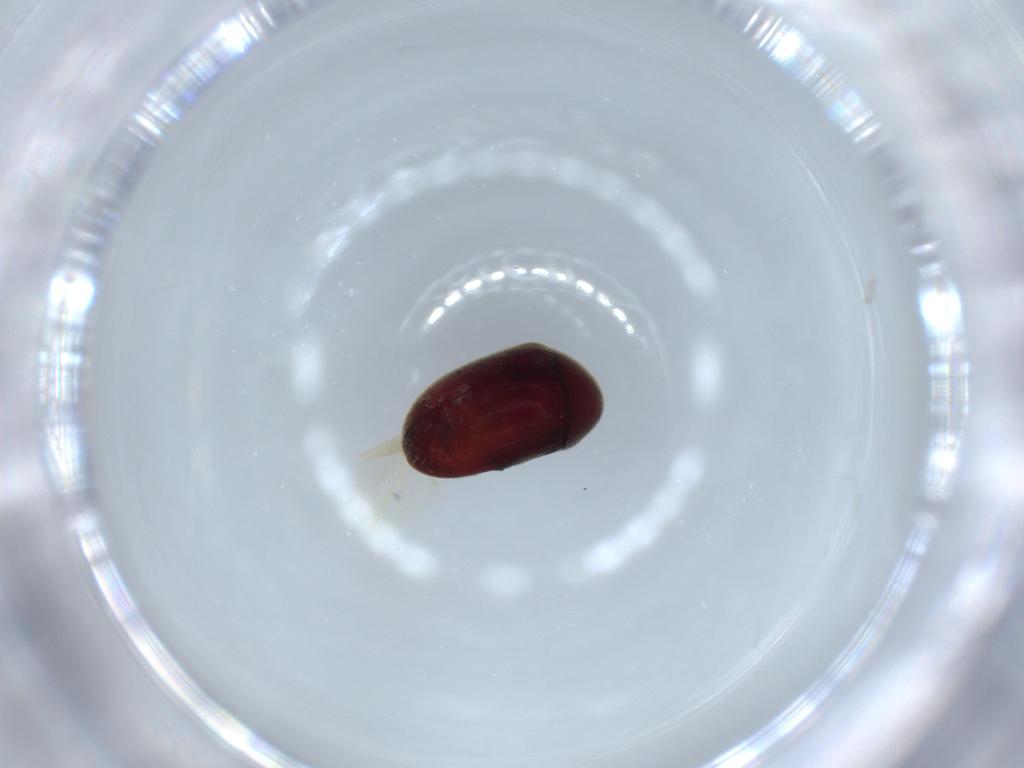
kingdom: Animalia
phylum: Arthropoda
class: Insecta
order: Coleoptera
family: Ptinidae
